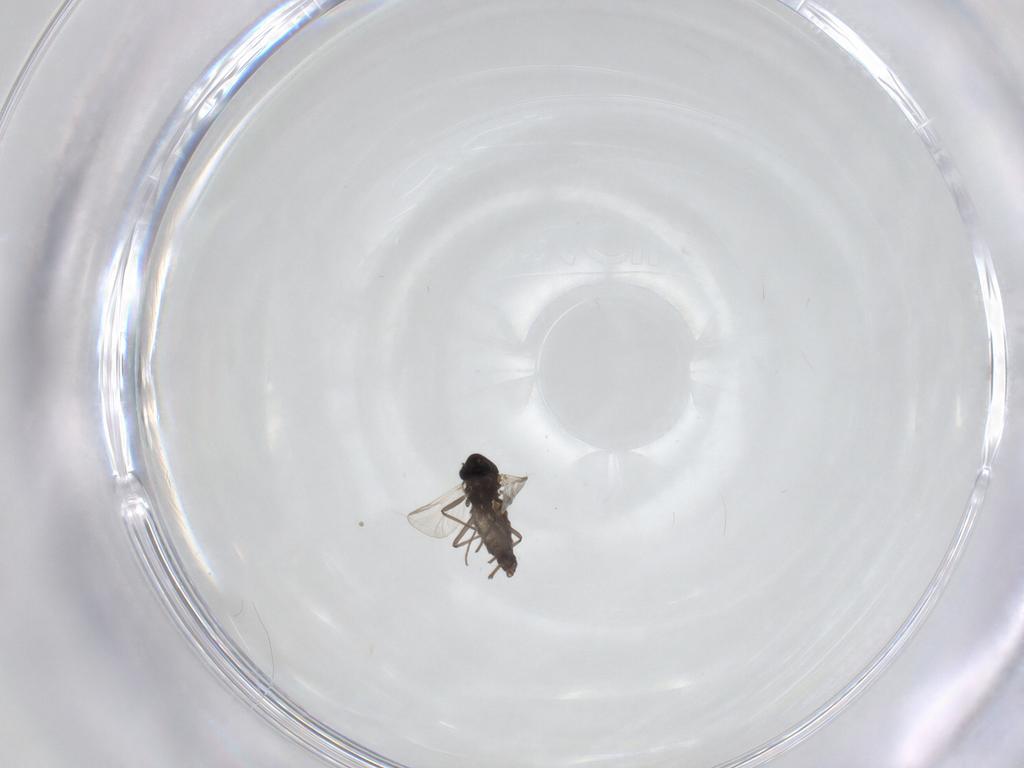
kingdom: Animalia
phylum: Arthropoda
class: Insecta
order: Diptera
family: Chironomidae
